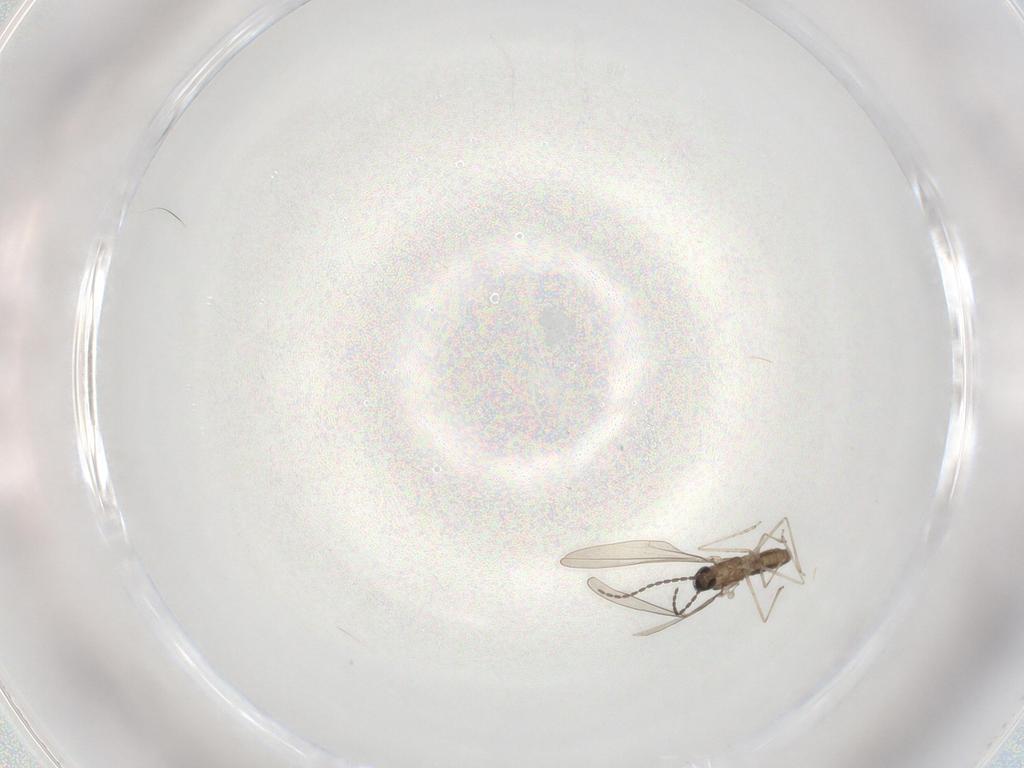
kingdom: Animalia
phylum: Arthropoda
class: Insecta
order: Diptera
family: Cecidomyiidae
